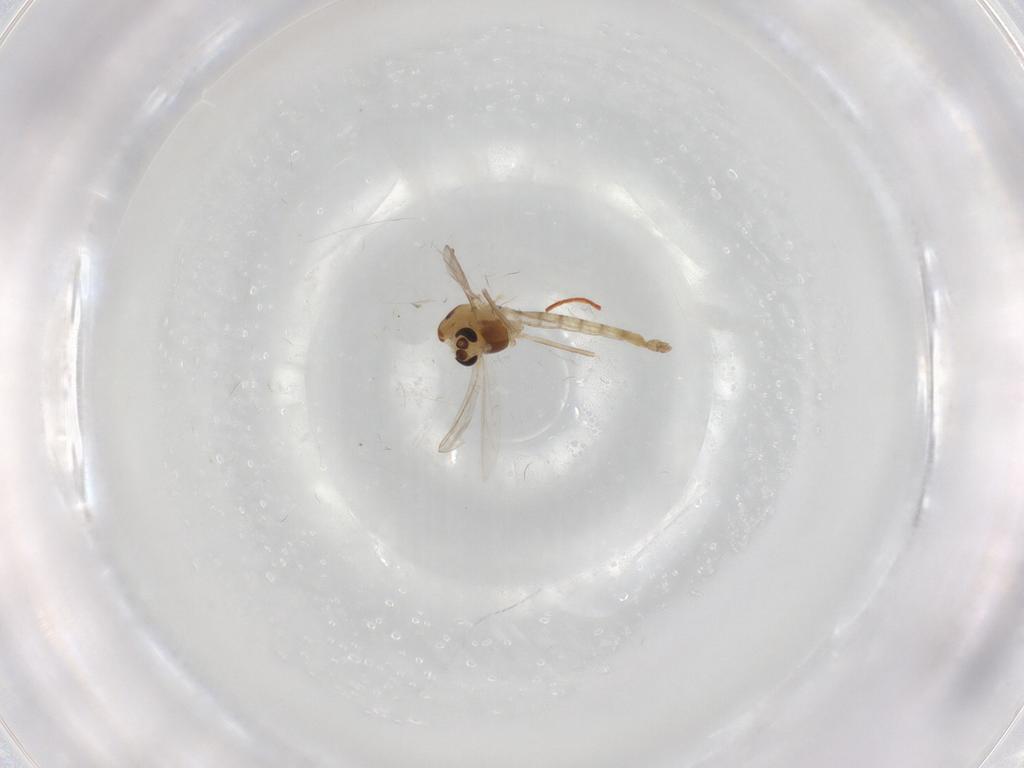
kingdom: Animalia
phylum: Arthropoda
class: Insecta
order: Diptera
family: Chironomidae
